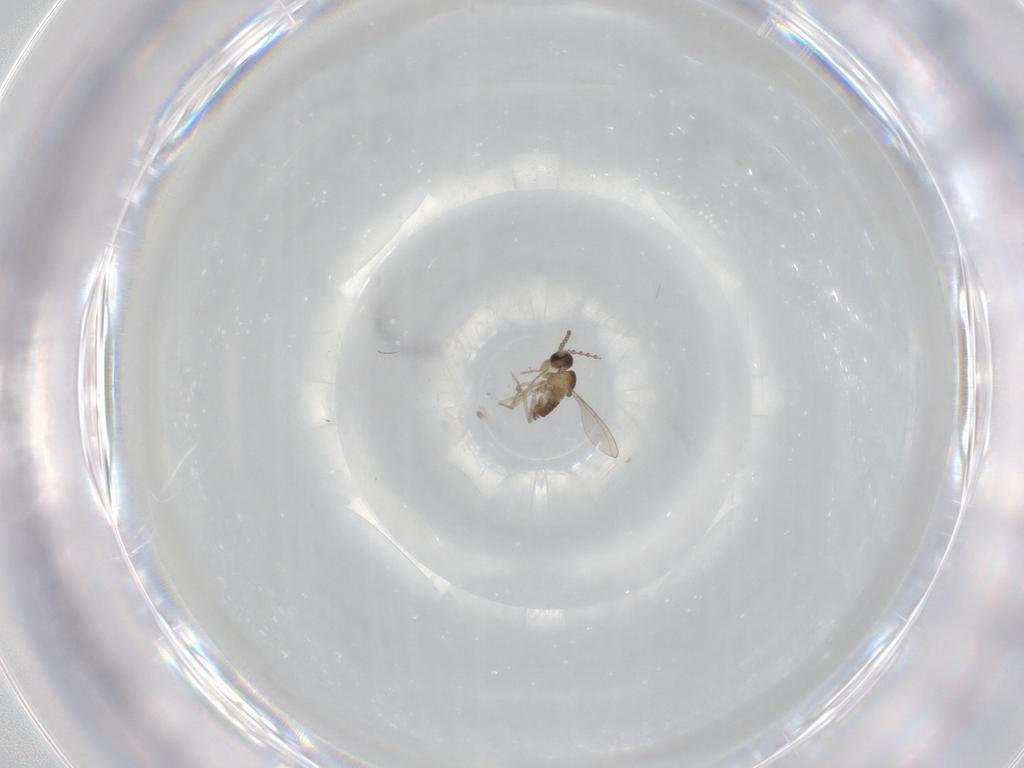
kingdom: Animalia
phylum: Arthropoda
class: Insecta
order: Diptera
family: Cecidomyiidae
